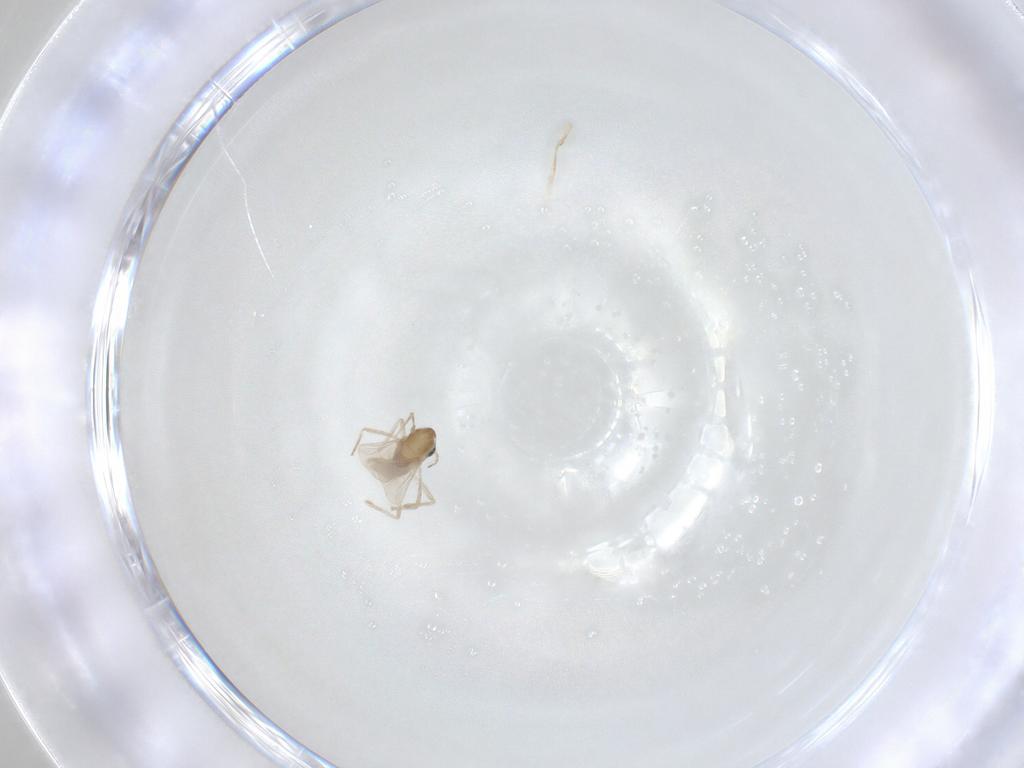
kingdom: Animalia
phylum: Arthropoda
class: Insecta
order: Diptera
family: Chironomidae
